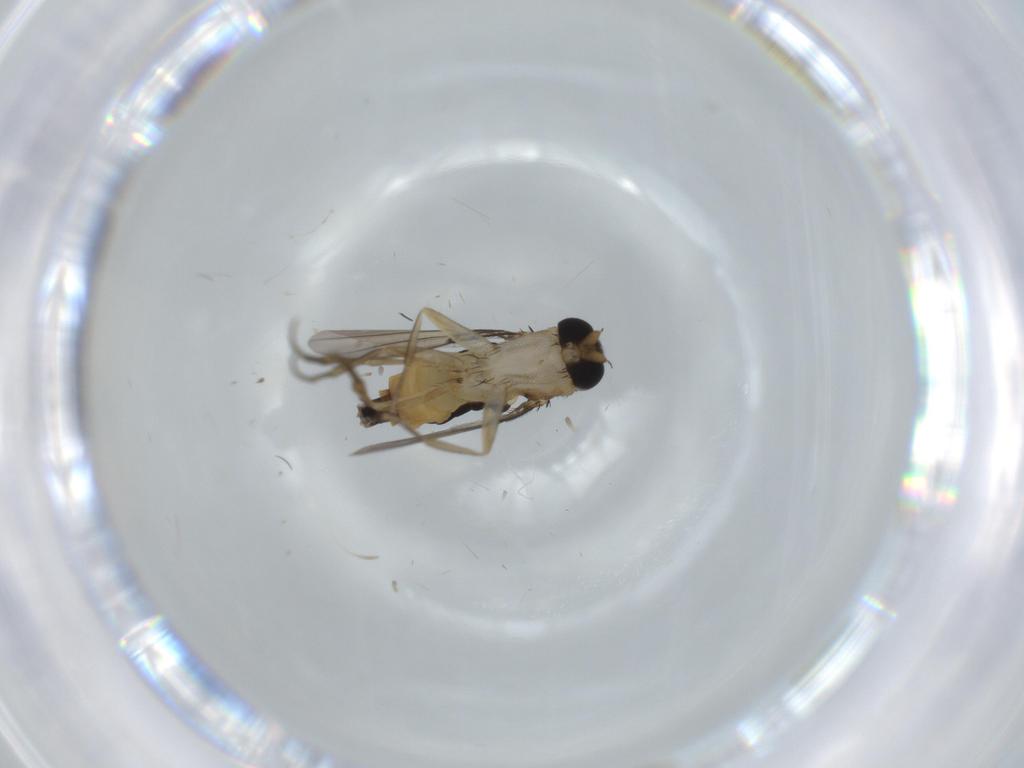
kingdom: Animalia
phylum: Arthropoda
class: Insecta
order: Diptera
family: Phoridae
